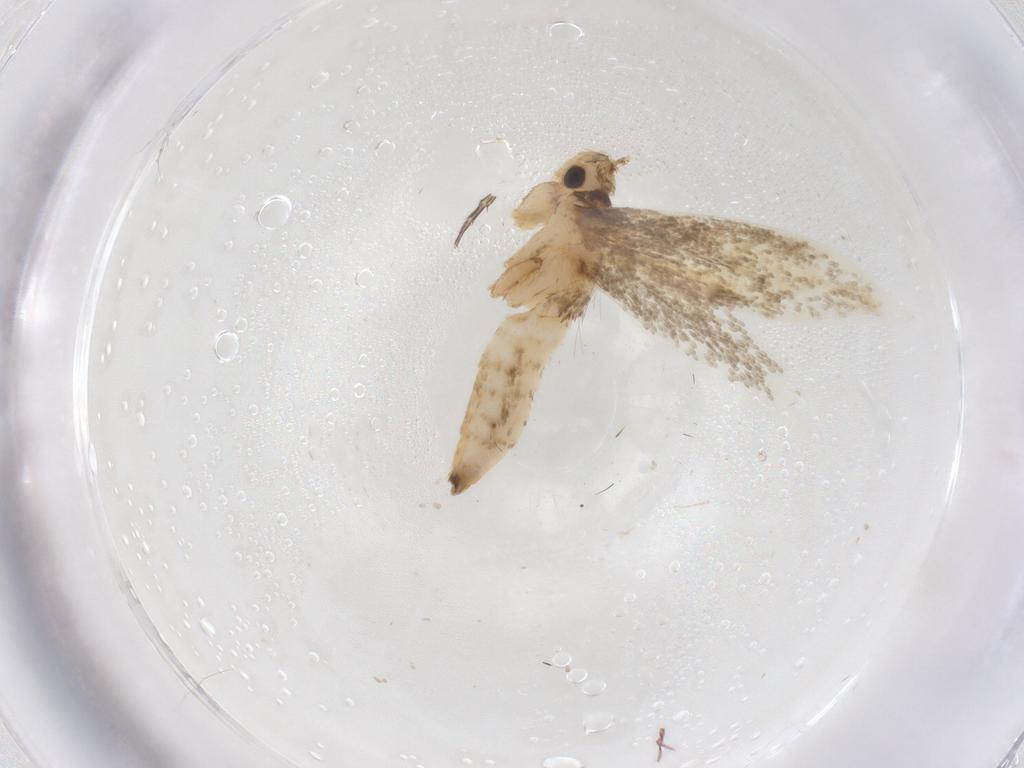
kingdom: Animalia
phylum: Arthropoda
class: Insecta
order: Lepidoptera
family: Tineidae
